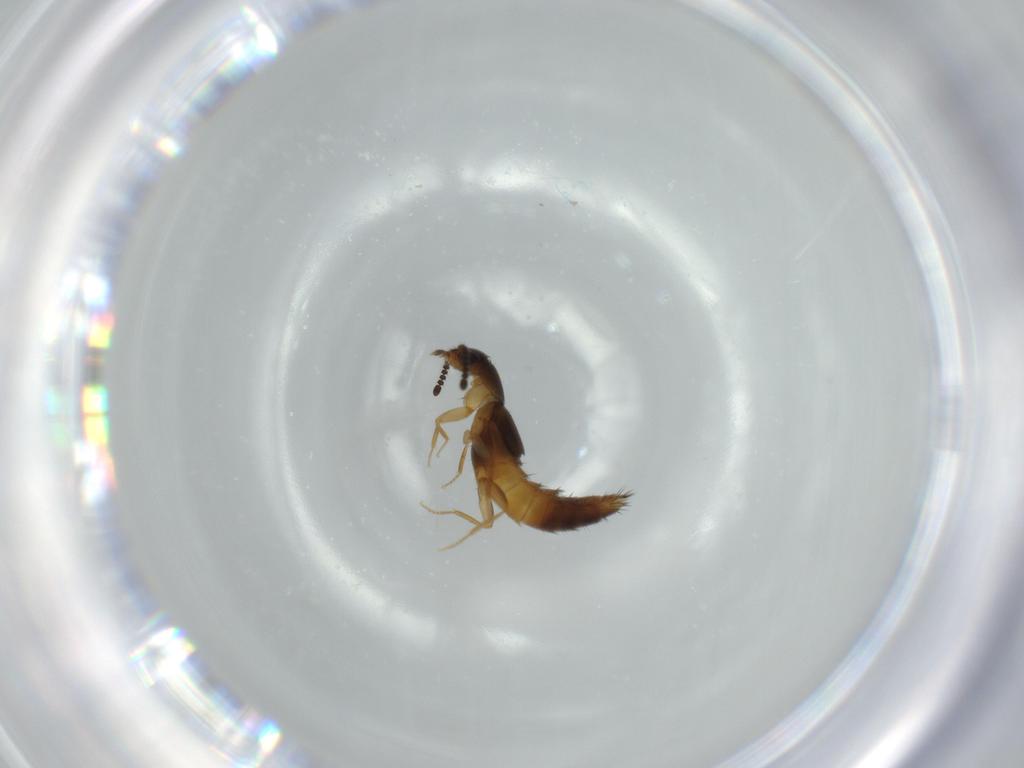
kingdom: Animalia
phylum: Arthropoda
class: Insecta
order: Coleoptera
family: Staphylinidae
